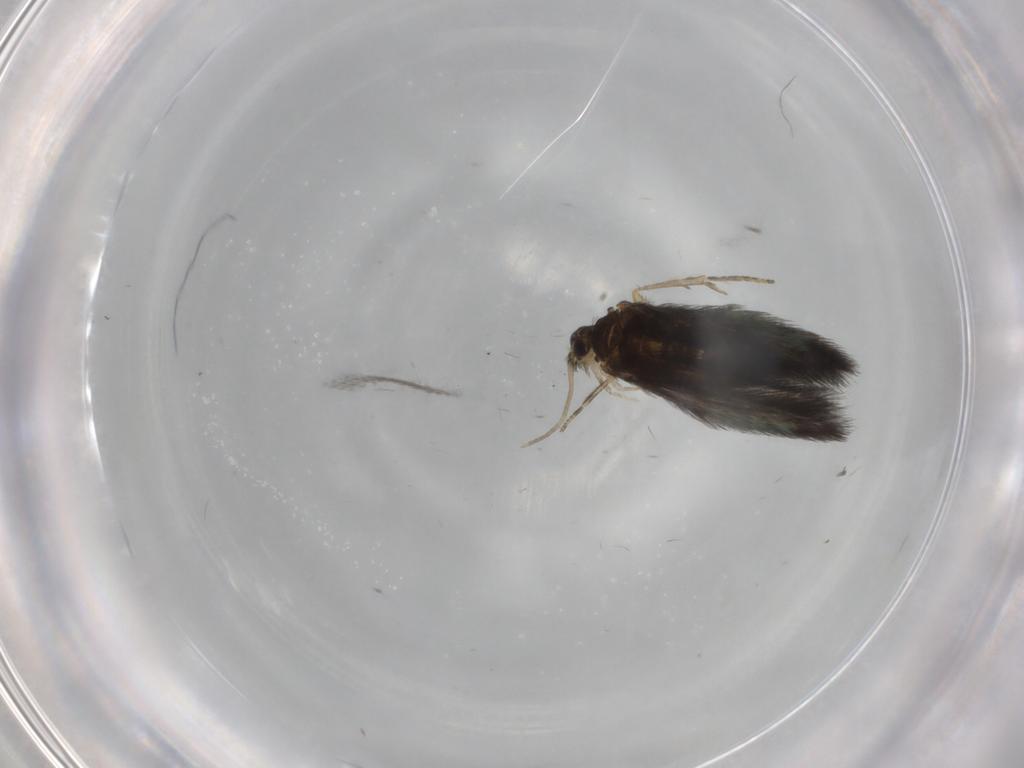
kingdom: Animalia
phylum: Arthropoda
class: Insecta
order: Trichoptera
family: Hydroptilidae
